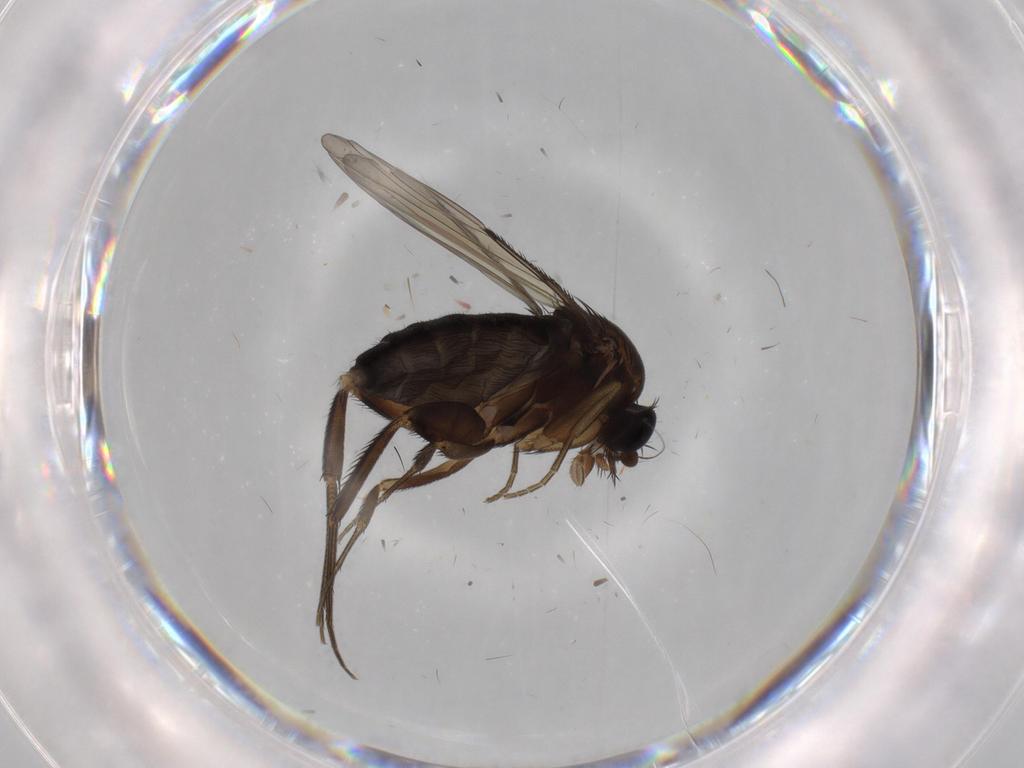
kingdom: Animalia
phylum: Arthropoda
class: Insecta
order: Diptera
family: Phoridae
